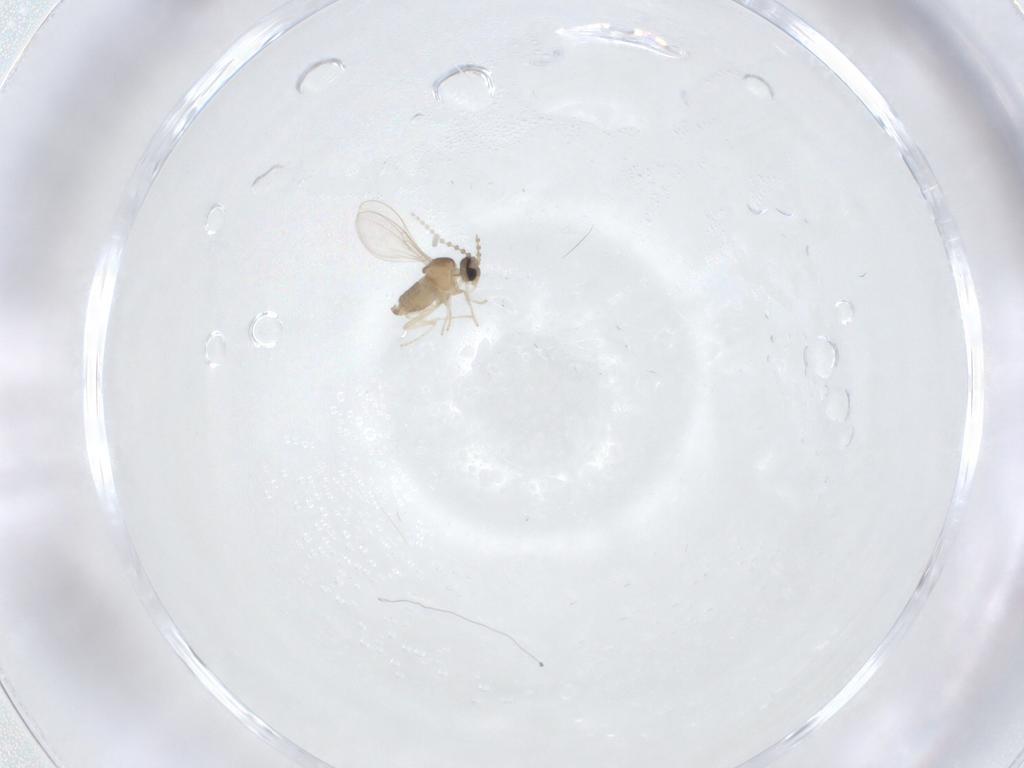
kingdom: Animalia
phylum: Arthropoda
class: Insecta
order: Diptera
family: Cecidomyiidae
